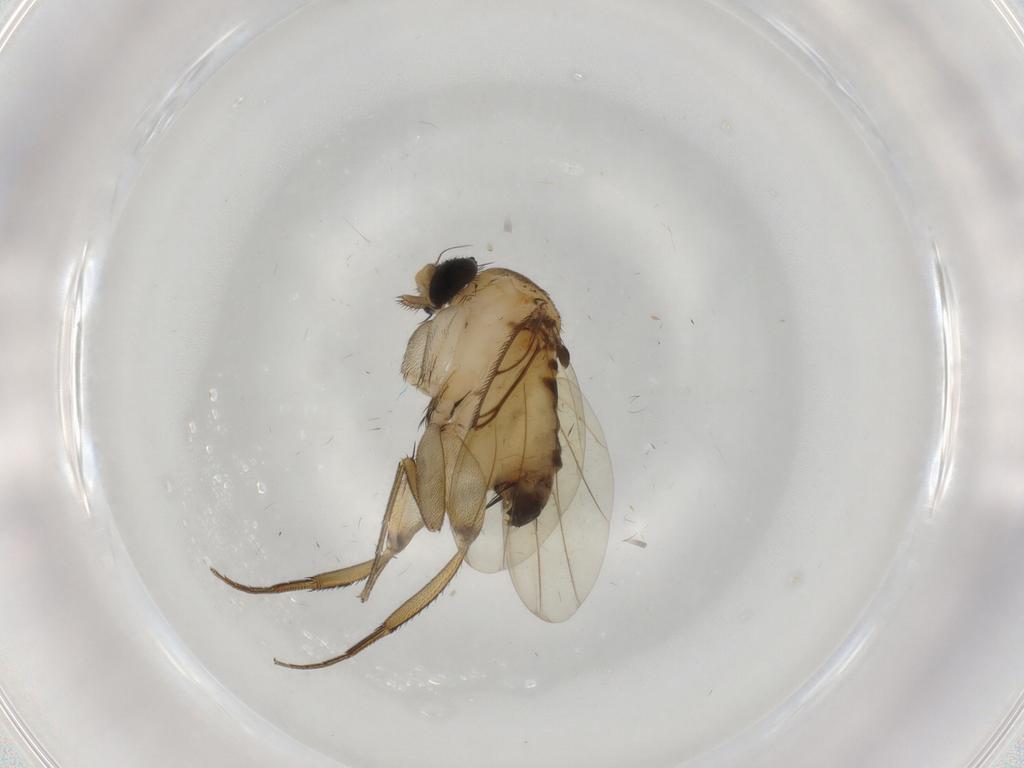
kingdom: Animalia
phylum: Arthropoda
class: Insecta
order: Diptera
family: Phoridae
